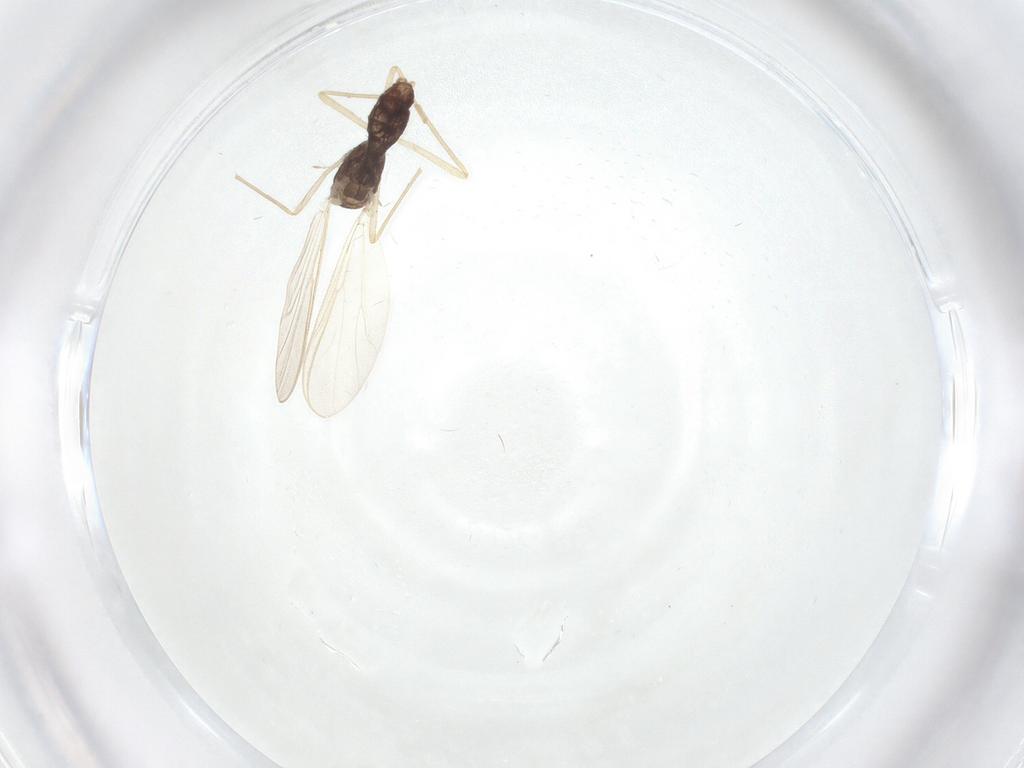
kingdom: Animalia
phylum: Arthropoda
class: Insecta
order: Diptera
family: Chironomidae
